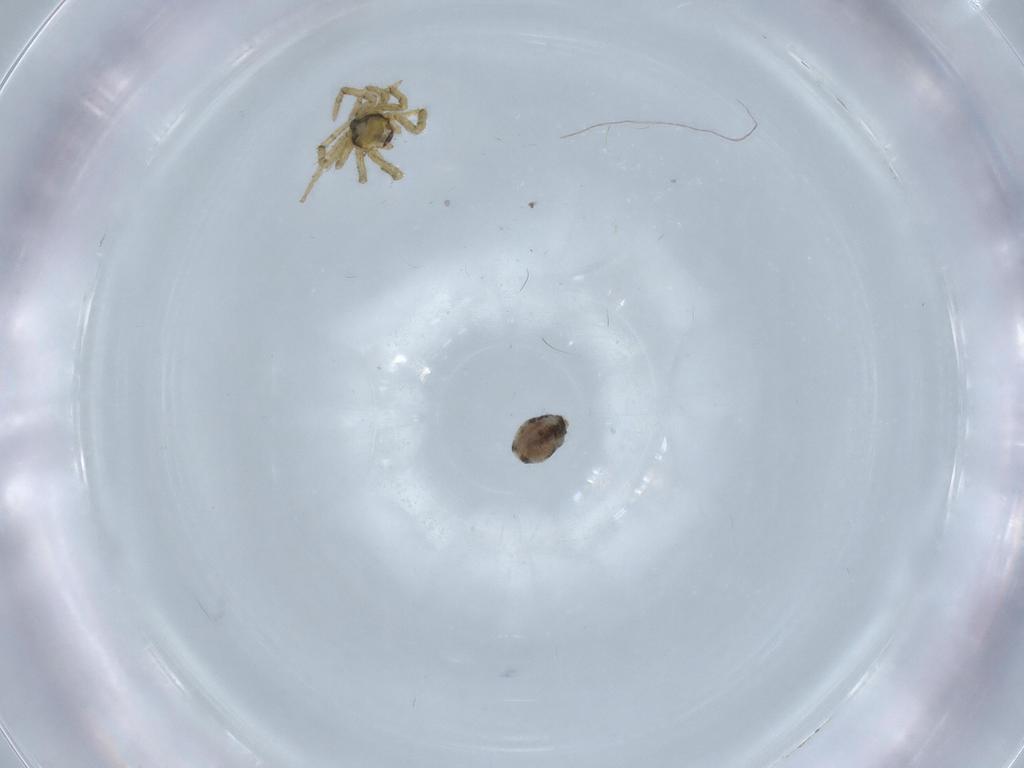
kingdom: Animalia
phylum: Arthropoda
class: Arachnida
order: Araneae
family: Theridiidae
